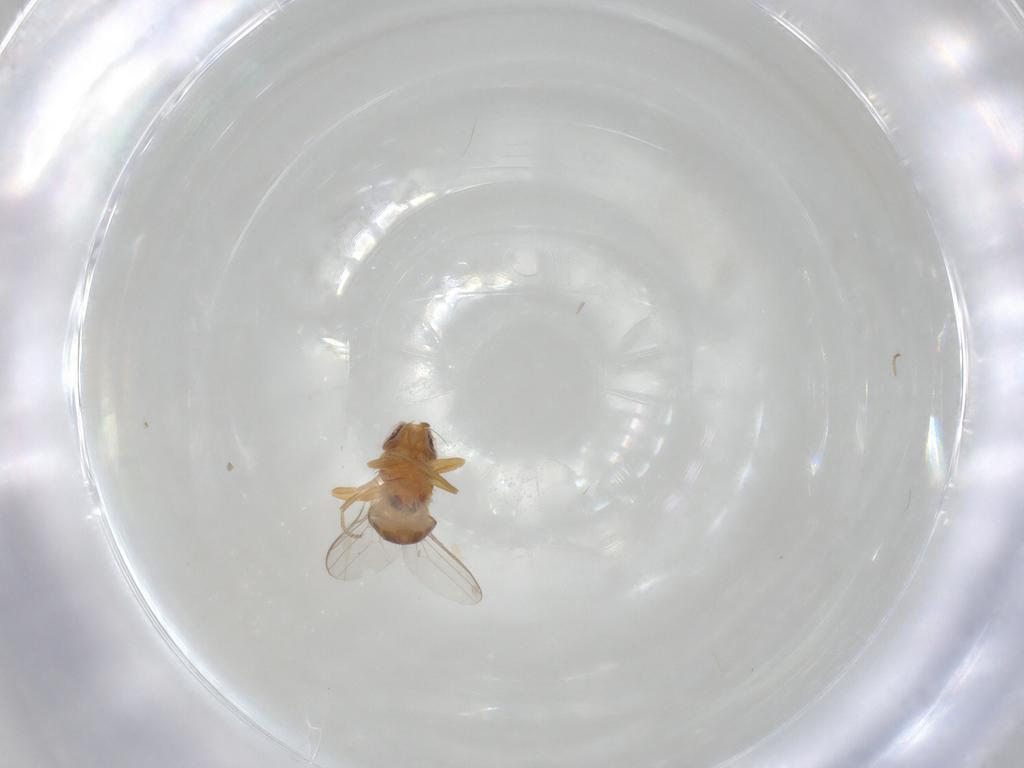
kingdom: Animalia
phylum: Arthropoda
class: Insecta
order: Diptera
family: Chloropidae
